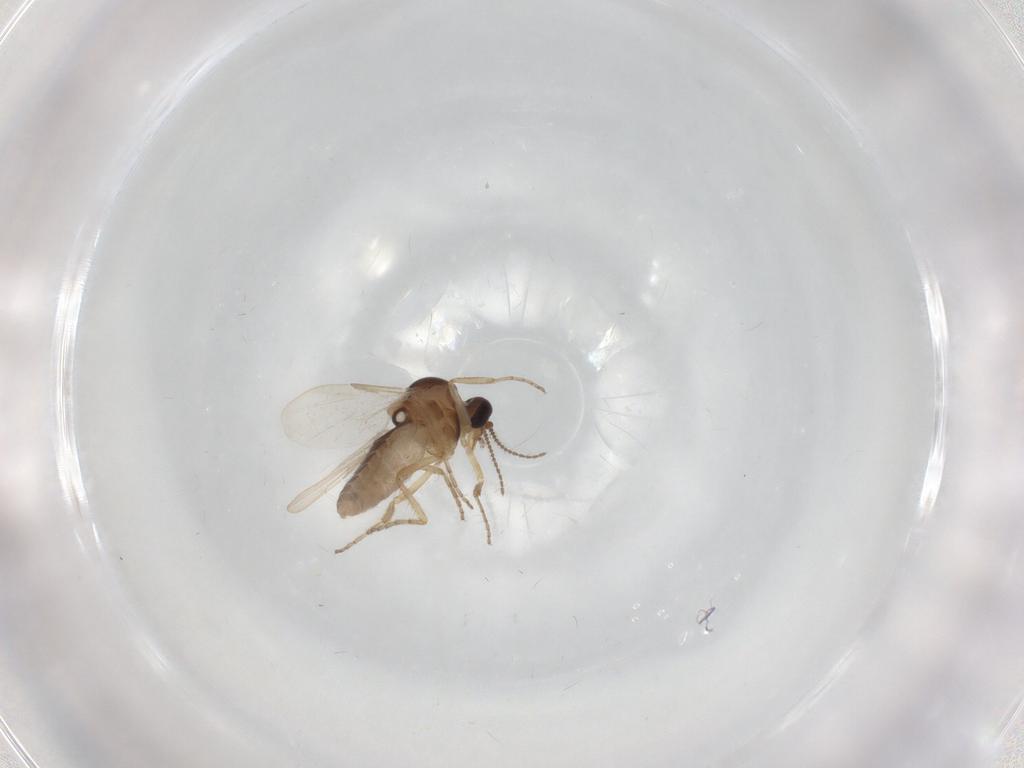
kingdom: Animalia
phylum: Arthropoda
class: Insecta
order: Diptera
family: Ceratopogonidae
